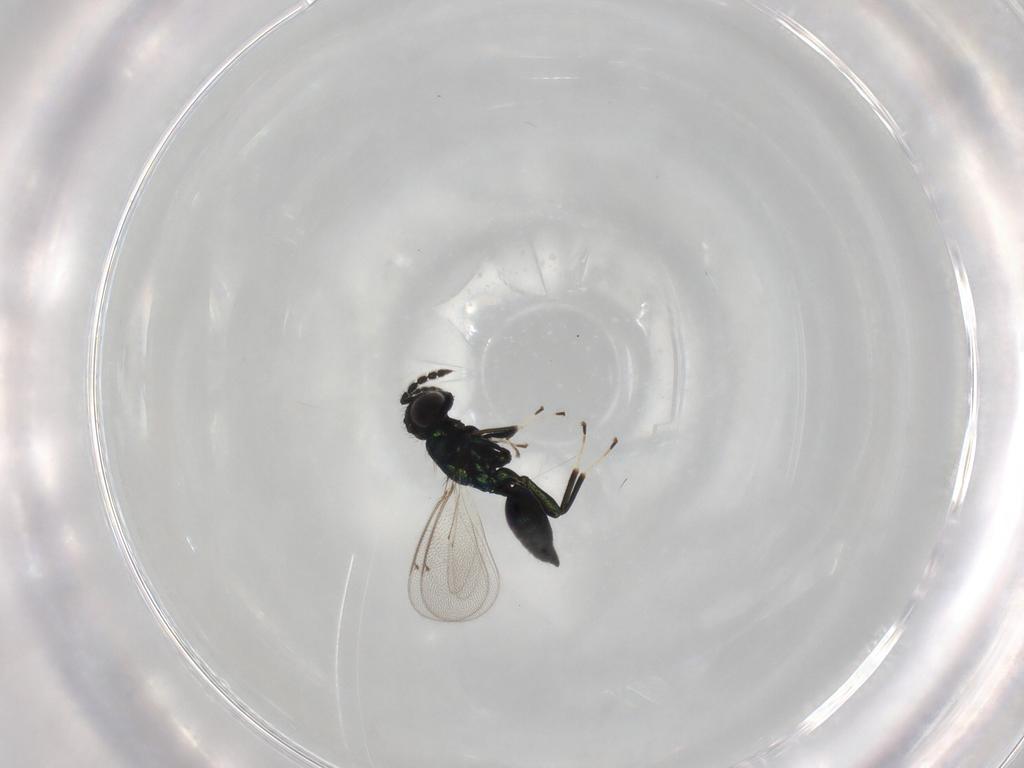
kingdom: Animalia
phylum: Arthropoda
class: Insecta
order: Hymenoptera
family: Eulophidae
